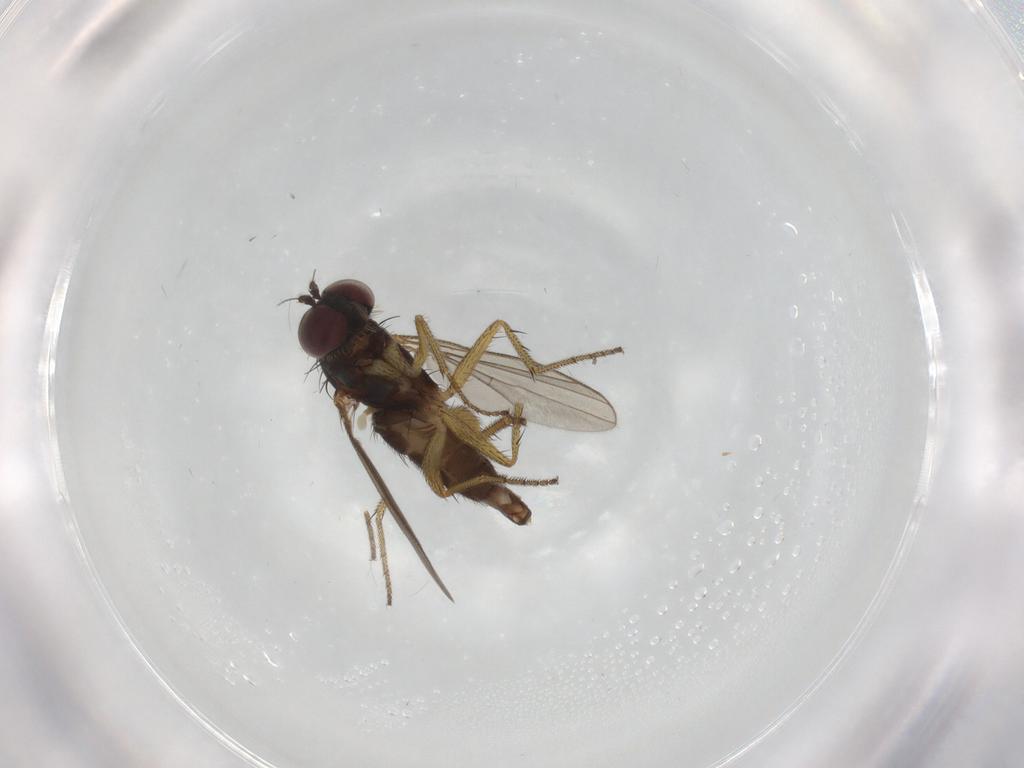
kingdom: Animalia
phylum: Arthropoda
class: Insecta
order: Diptera
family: Dolichopodidae
